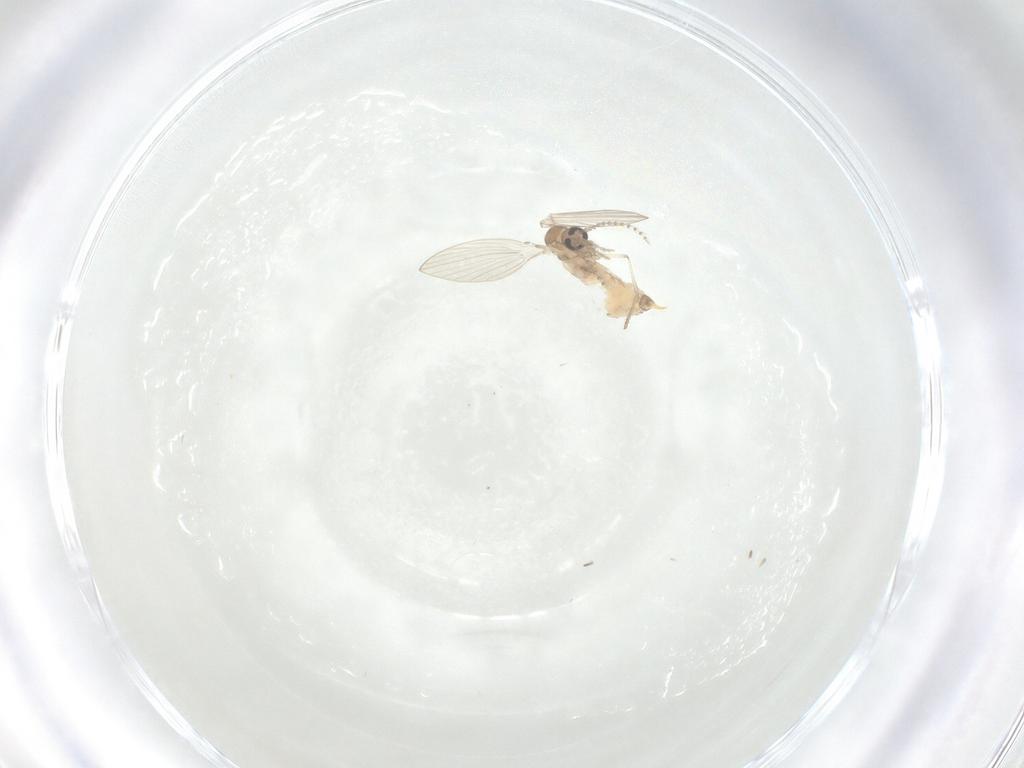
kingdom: Animalia
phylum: Arthropoda
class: Insecta
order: Diptera
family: Psychodidae
